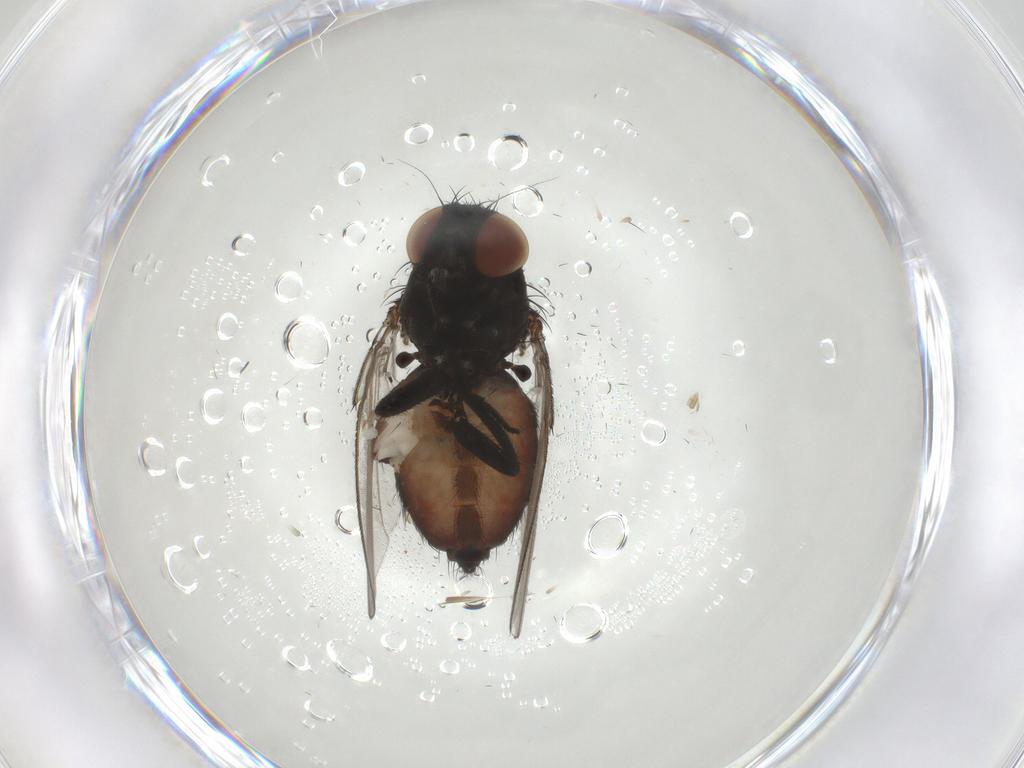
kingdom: Animalia
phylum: Arthropoda
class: Insecta
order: Diptera
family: Milichiidae
